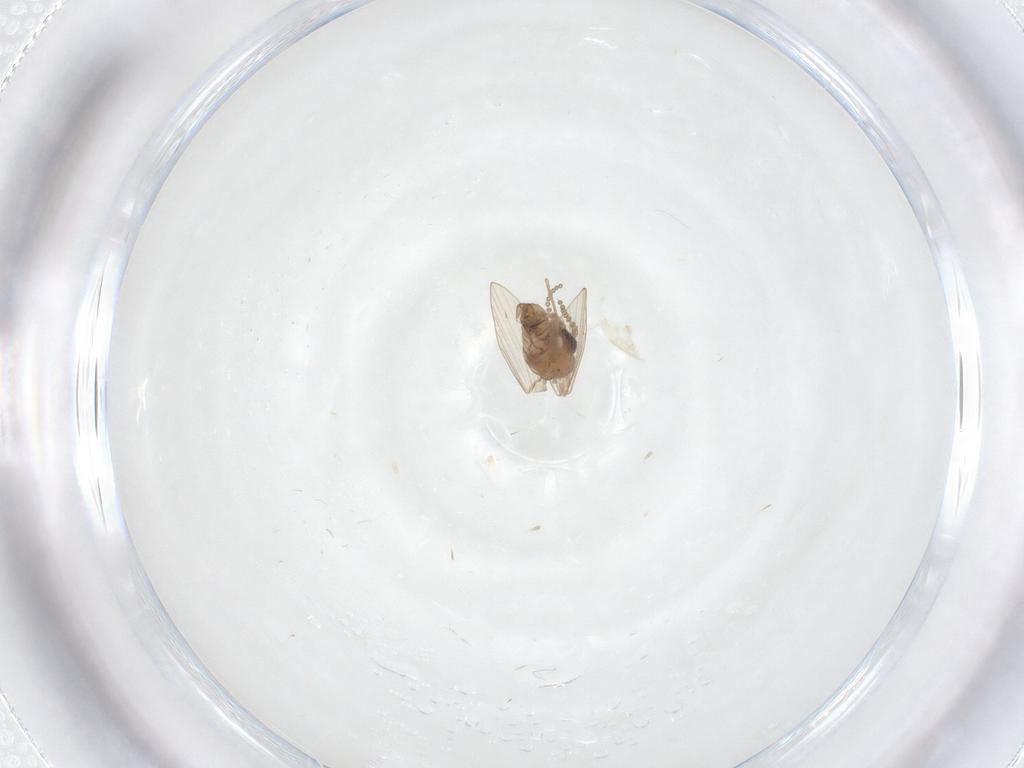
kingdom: Animalia
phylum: Arthropoda
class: Insecta
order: Diptera
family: Psychodidae
